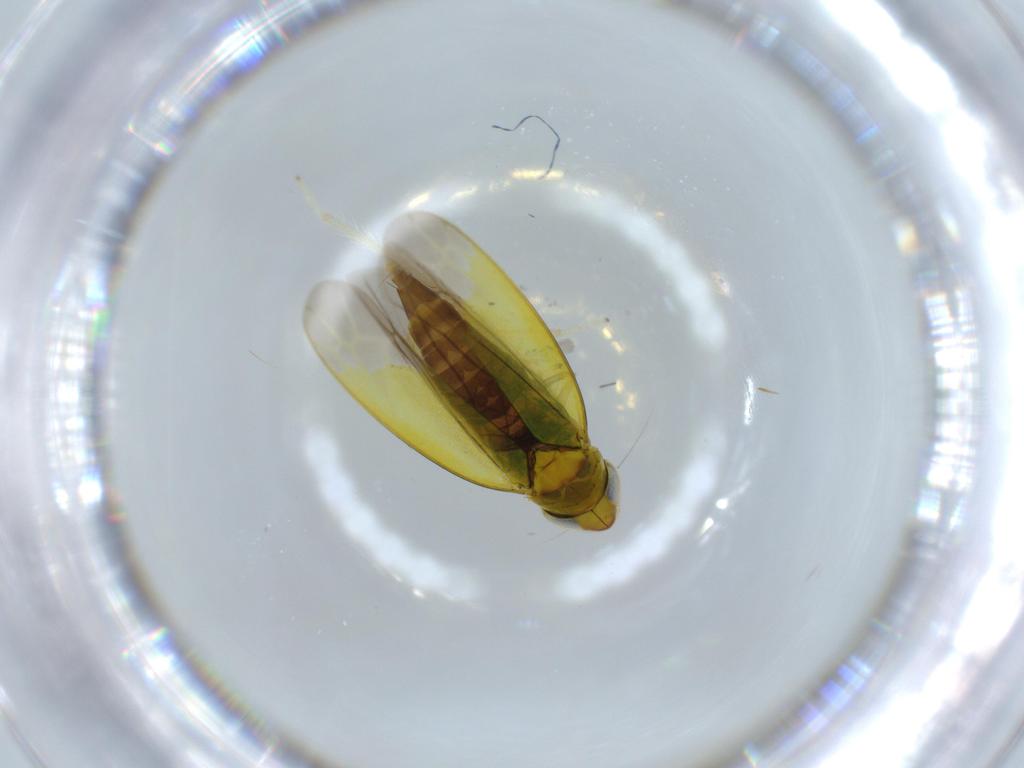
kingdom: Animalia
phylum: Arthropoda
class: Insecta
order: Hemiptera
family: Cicadellidae
